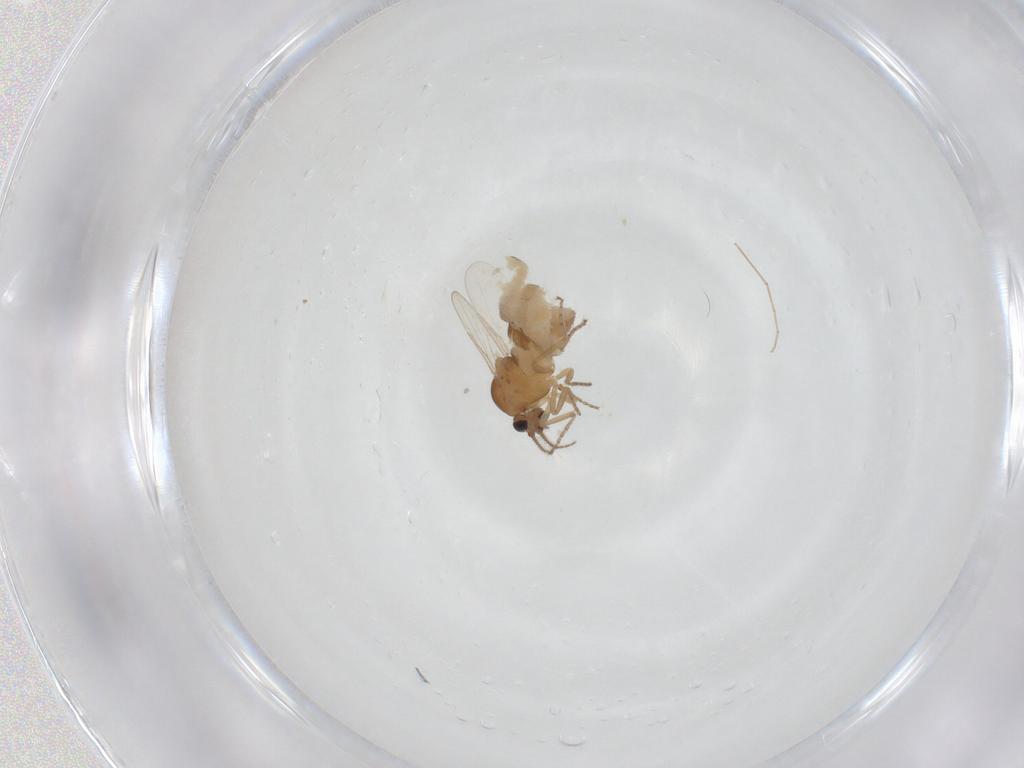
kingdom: Animalia
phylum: Arthropoda
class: Insecta
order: Diptera
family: Ceratopogonidae
